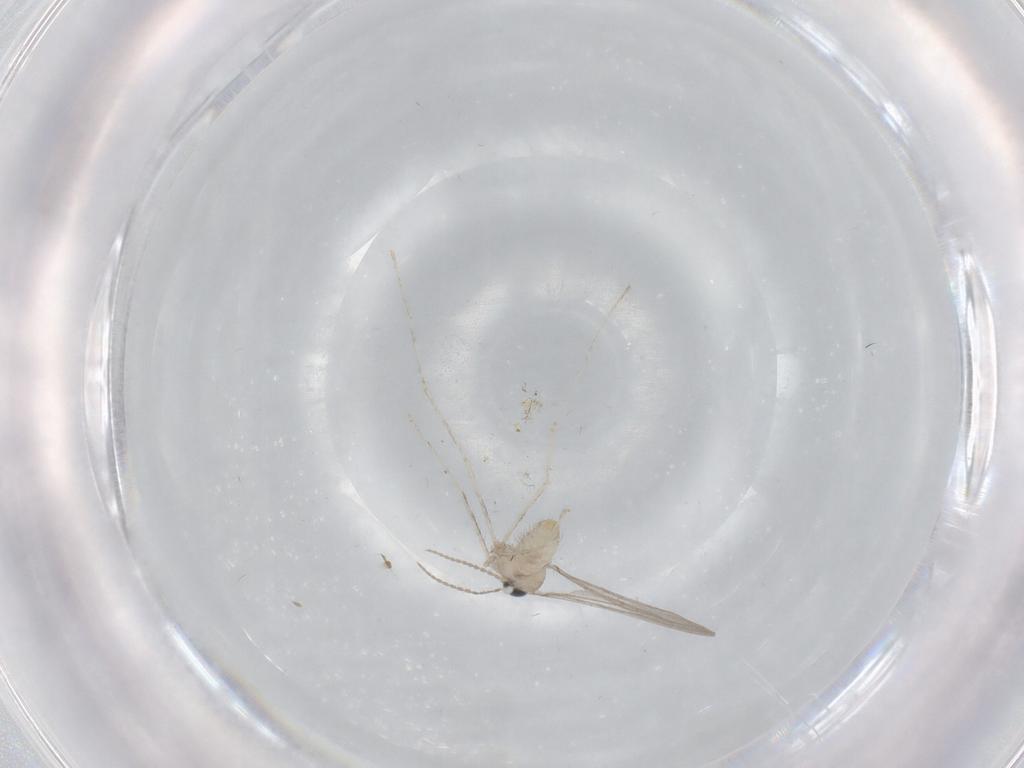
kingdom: Animalia
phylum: Arthropoda
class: Insecta
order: Diptera
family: Cecidomyiidae
